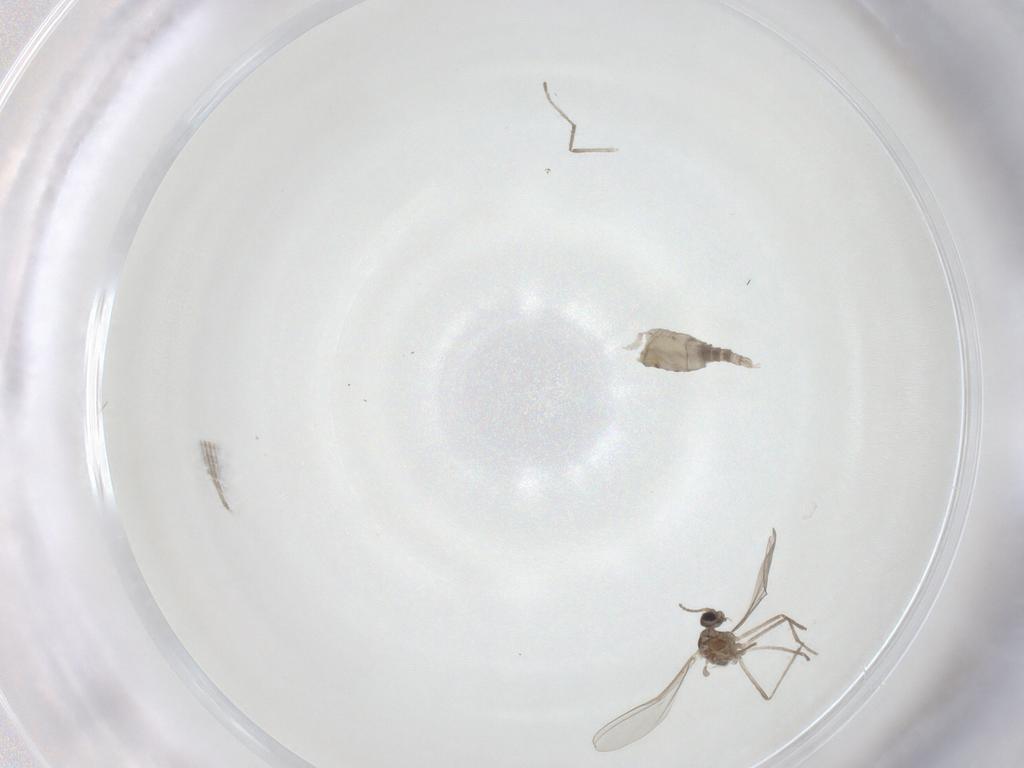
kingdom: Animalia
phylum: Arthropoda
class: Insecta
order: Diptera
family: Cecidomyiidae
